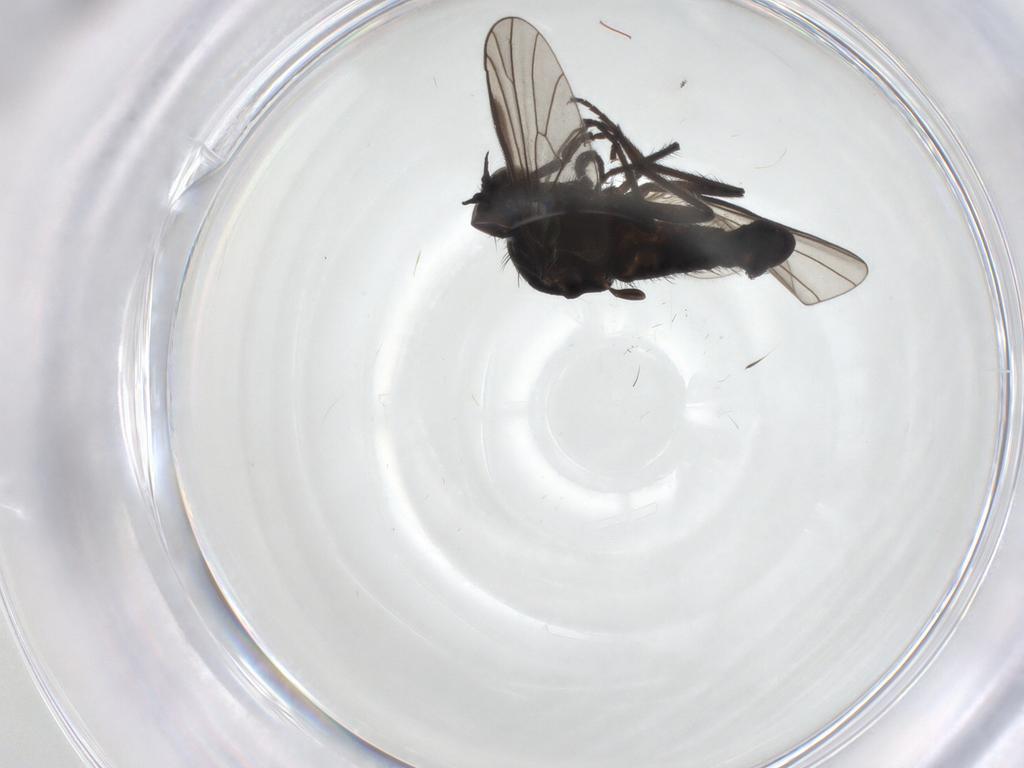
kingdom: Animalia
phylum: Arthropoda
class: Insecta
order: Diptera
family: Empididae
